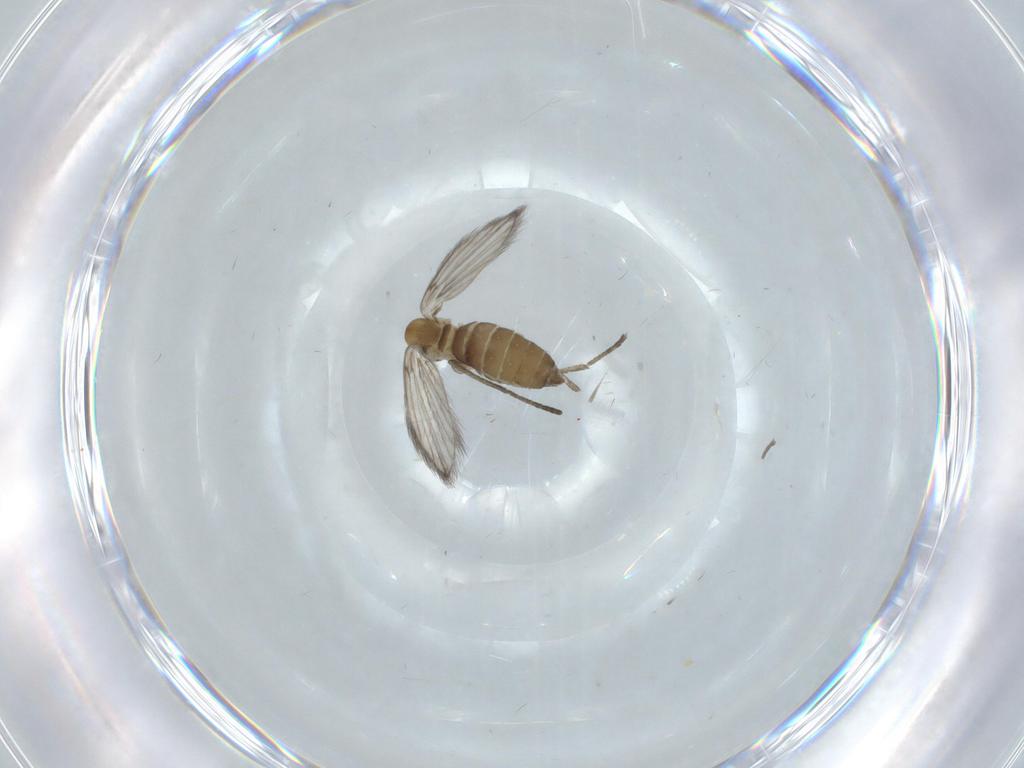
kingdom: Animalia
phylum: Arthropoda
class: Insecta
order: Diptera
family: Psychodidae
